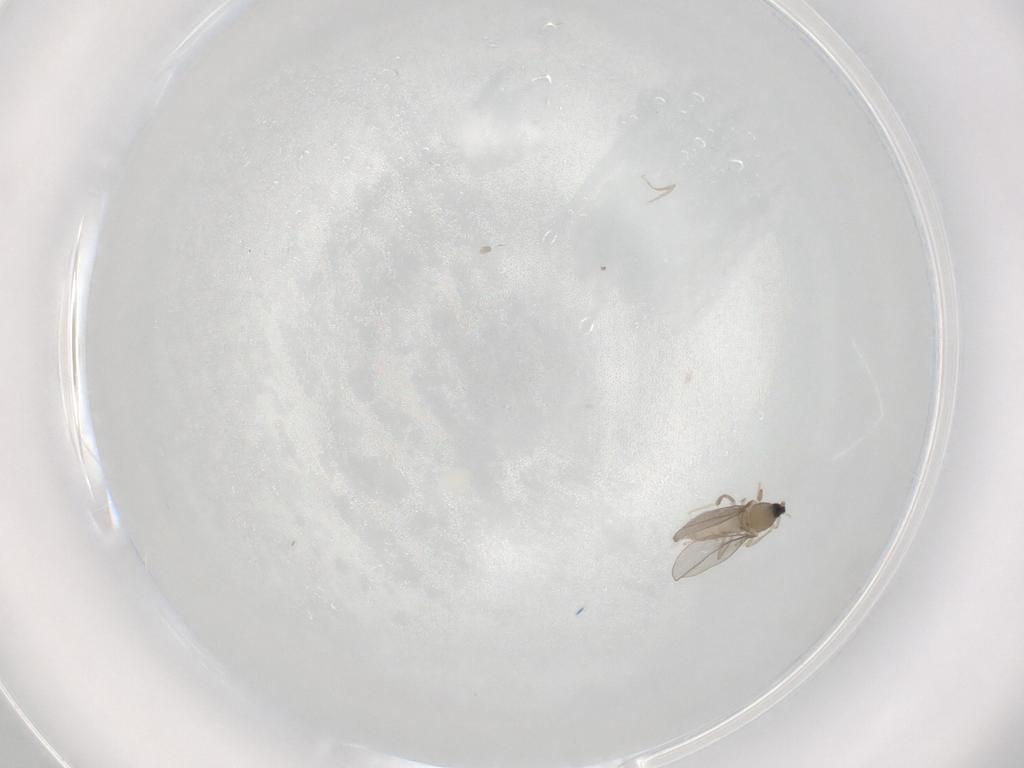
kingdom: Animalia
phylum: Arthropoda
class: Insecta
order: Diptera
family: Cecidomyiidae
